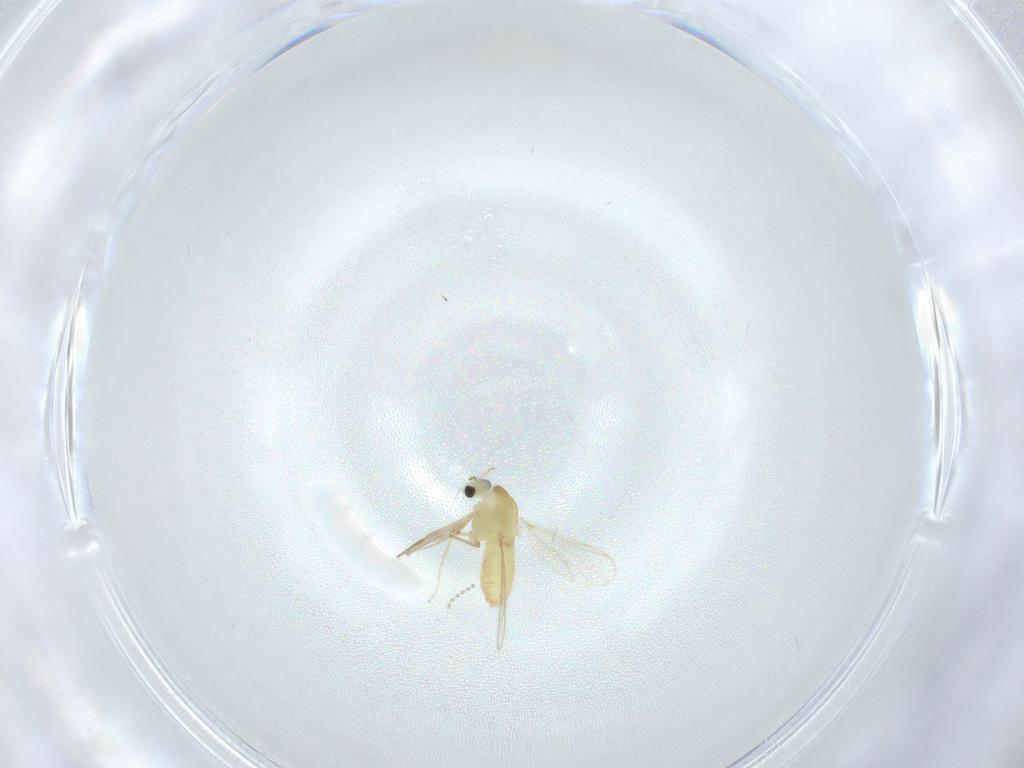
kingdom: Animalia
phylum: Arthropoda
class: Insecta
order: Diptera
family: Chironomidae
